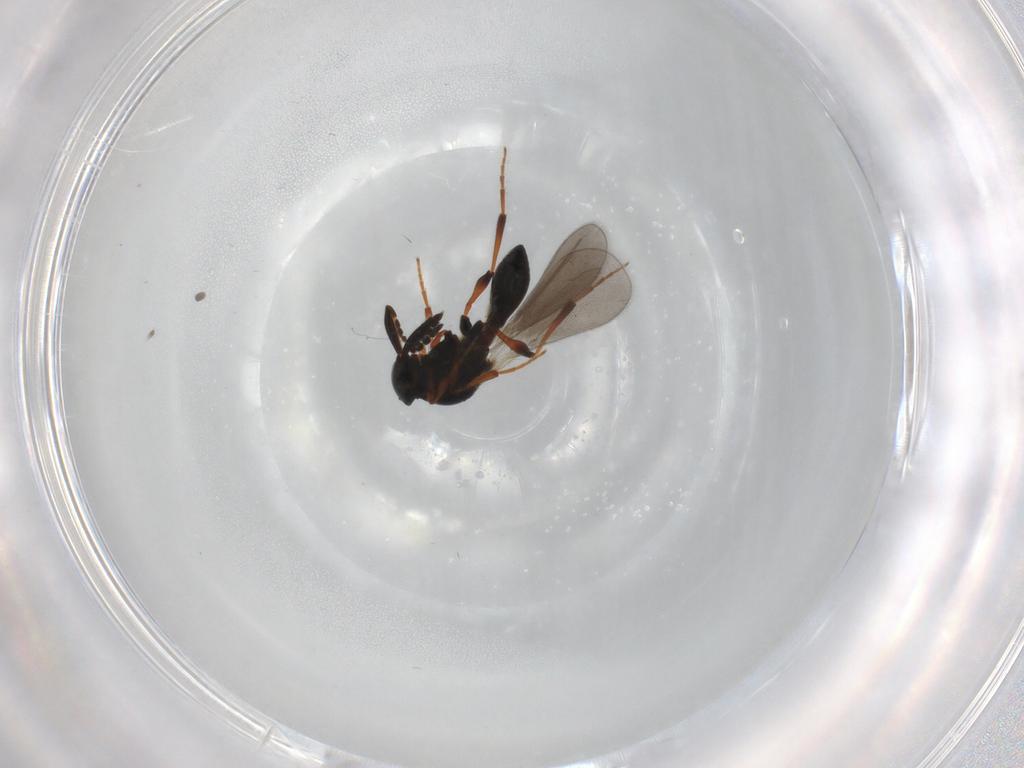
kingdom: Animalia
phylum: Arthropoda
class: Insecta
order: Hymenoptera
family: Platygastridae
